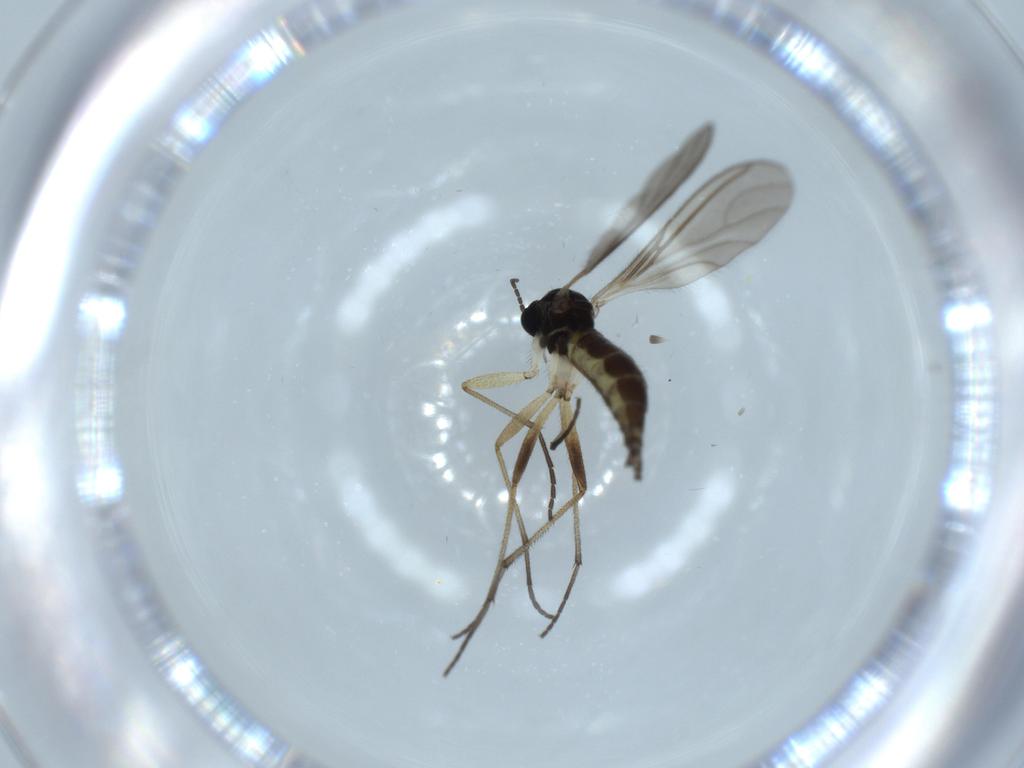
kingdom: Animalia
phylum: Arthropoda
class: Insecta
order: Diptera
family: Sciaridae
